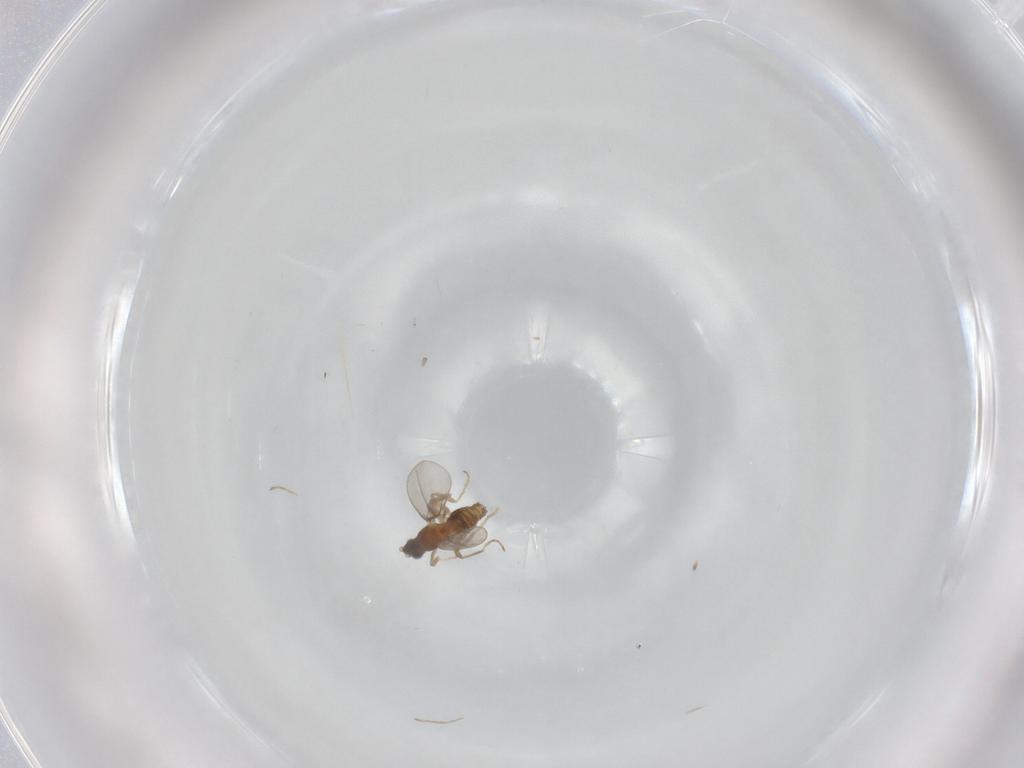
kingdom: Animalia
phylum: Arthropoda
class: Insecta
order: Diptera
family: Cecidomyiidae
